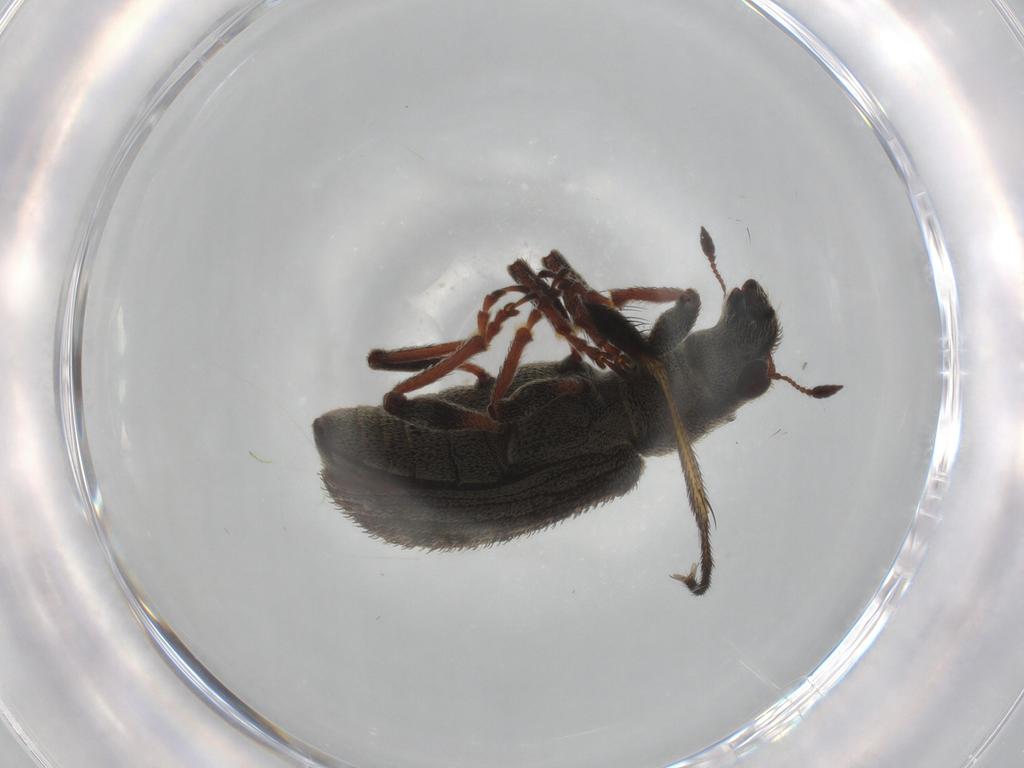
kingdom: Animalia
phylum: Arthropoda
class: Insecta
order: Coleoptera
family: Curculionidae
